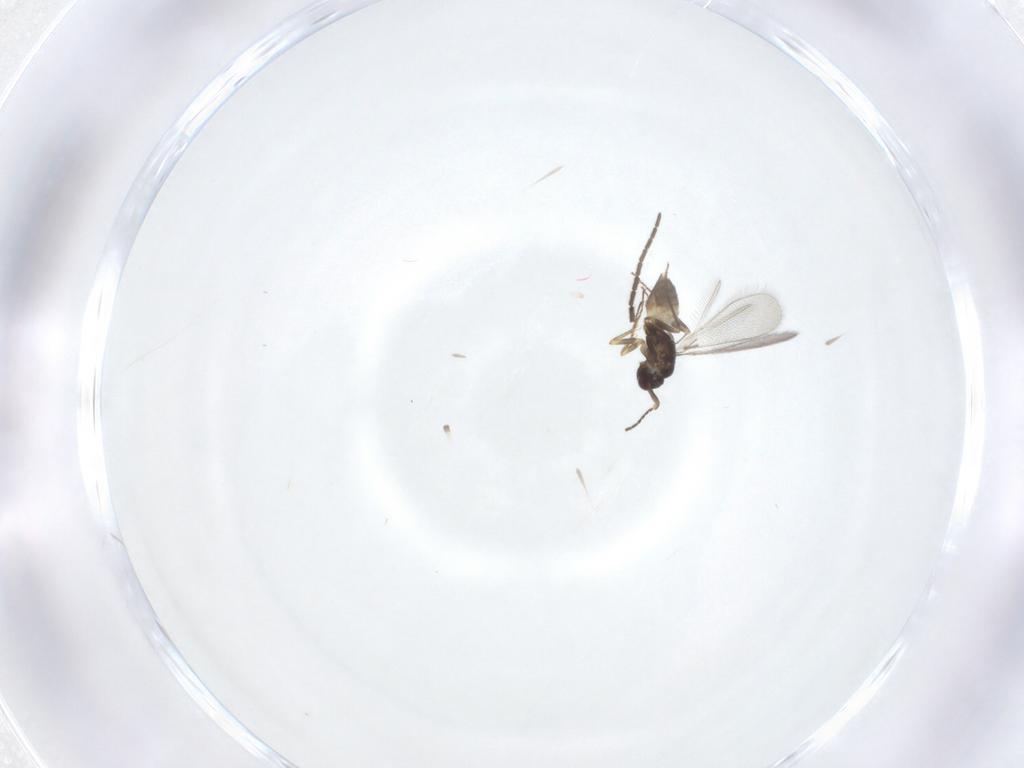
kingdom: Animalia
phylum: Arthropoda
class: Insecta
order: Hymenoptera
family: Mymaridae
